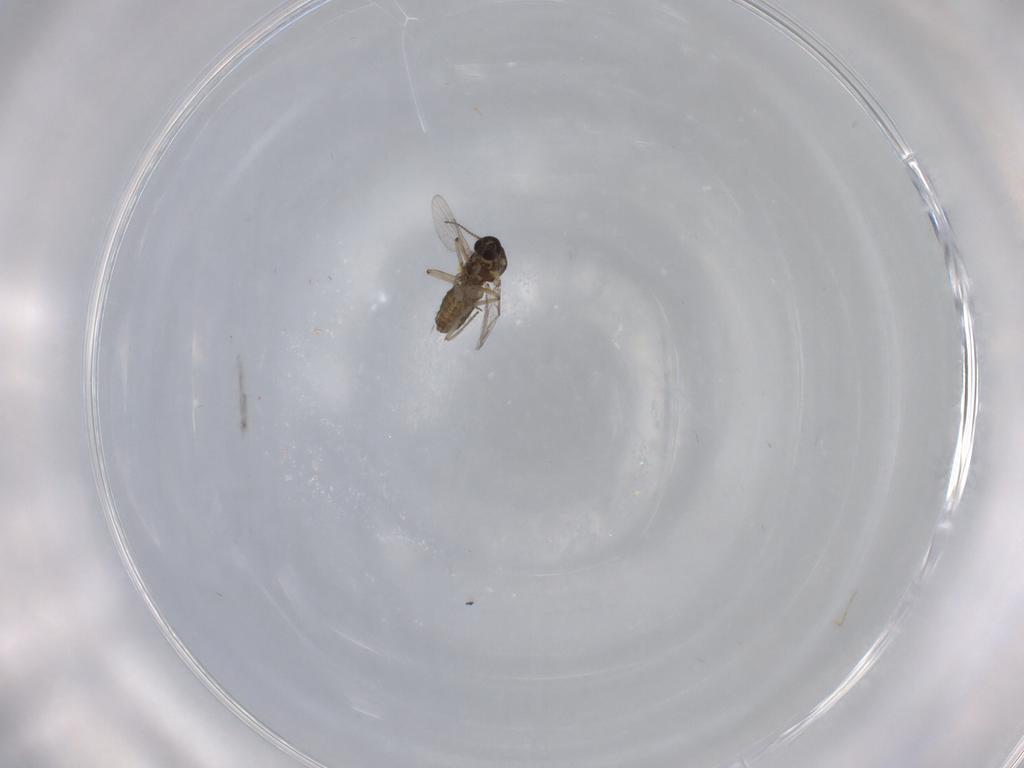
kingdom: Animalia
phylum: Arthropoda
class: Insecta
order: Diptera
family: Ceratopogonidae
